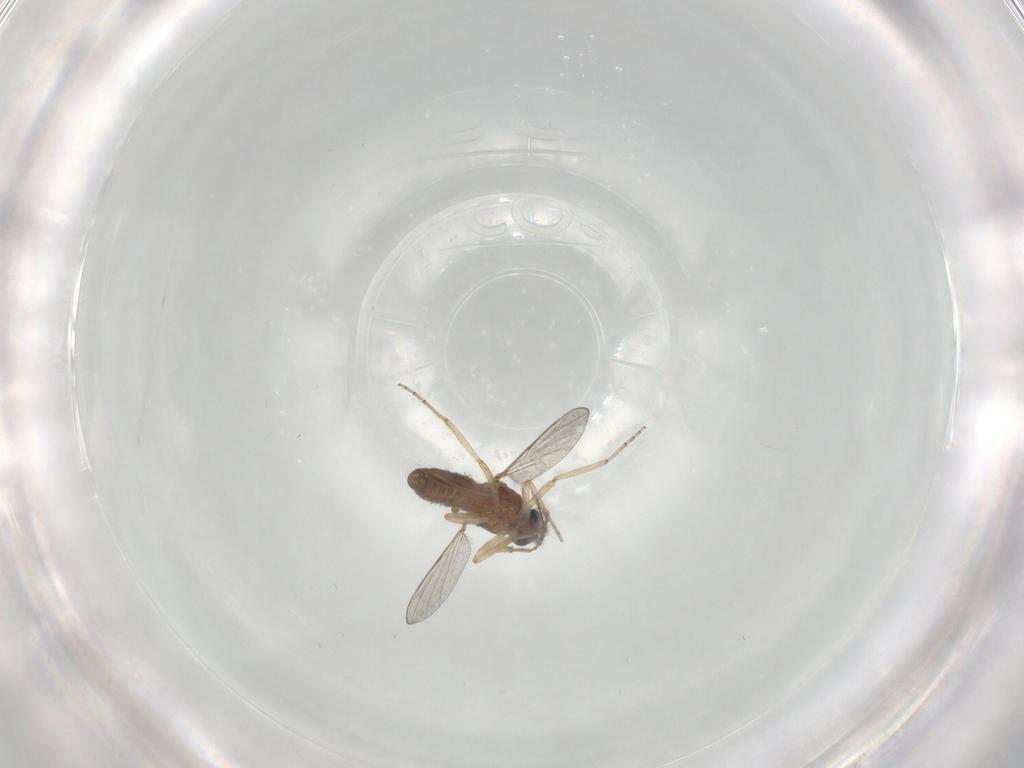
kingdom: Animalia
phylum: Arthropoda
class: Insecta
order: Diptera
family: Ceratopogonidae
